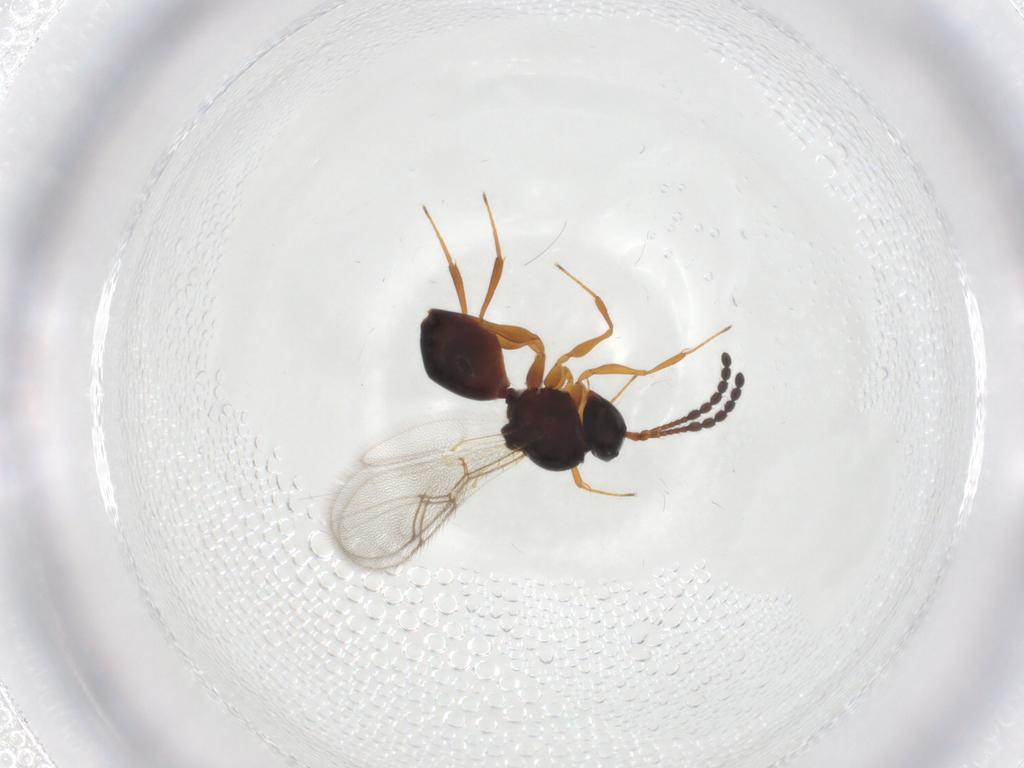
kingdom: Animalia
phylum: Arthropoda
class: Insecta
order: Hymenoptera
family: Figitidae
